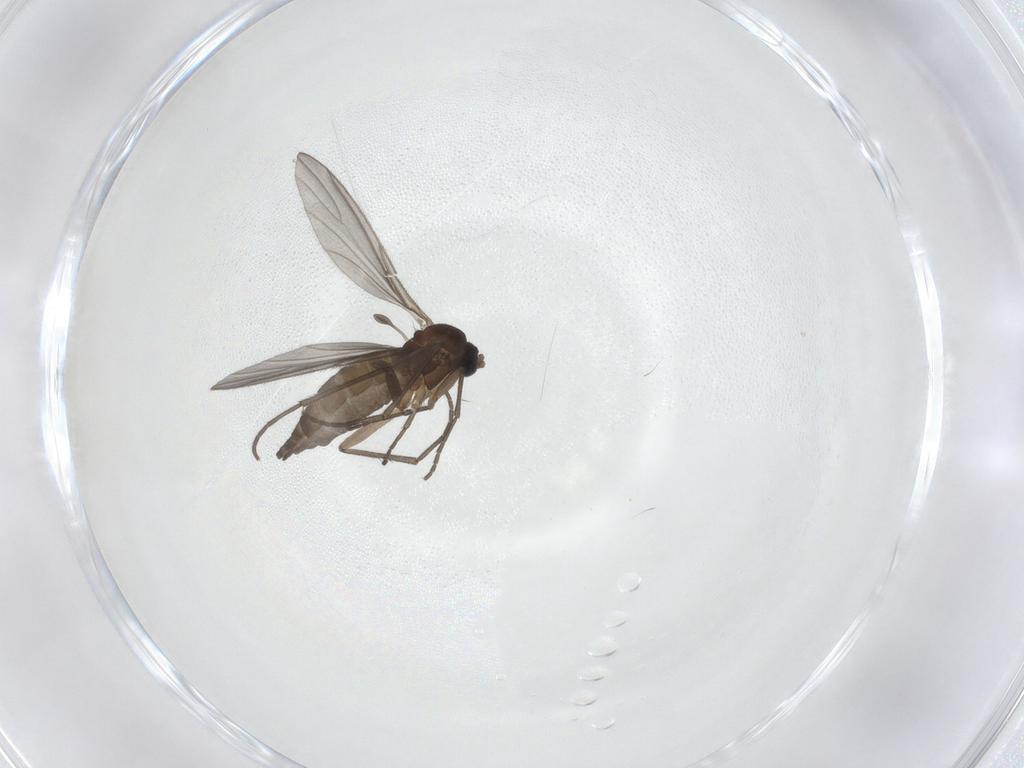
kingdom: Animalia
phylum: Arthropoda
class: Insecta
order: Diptera
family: Sciaridae
